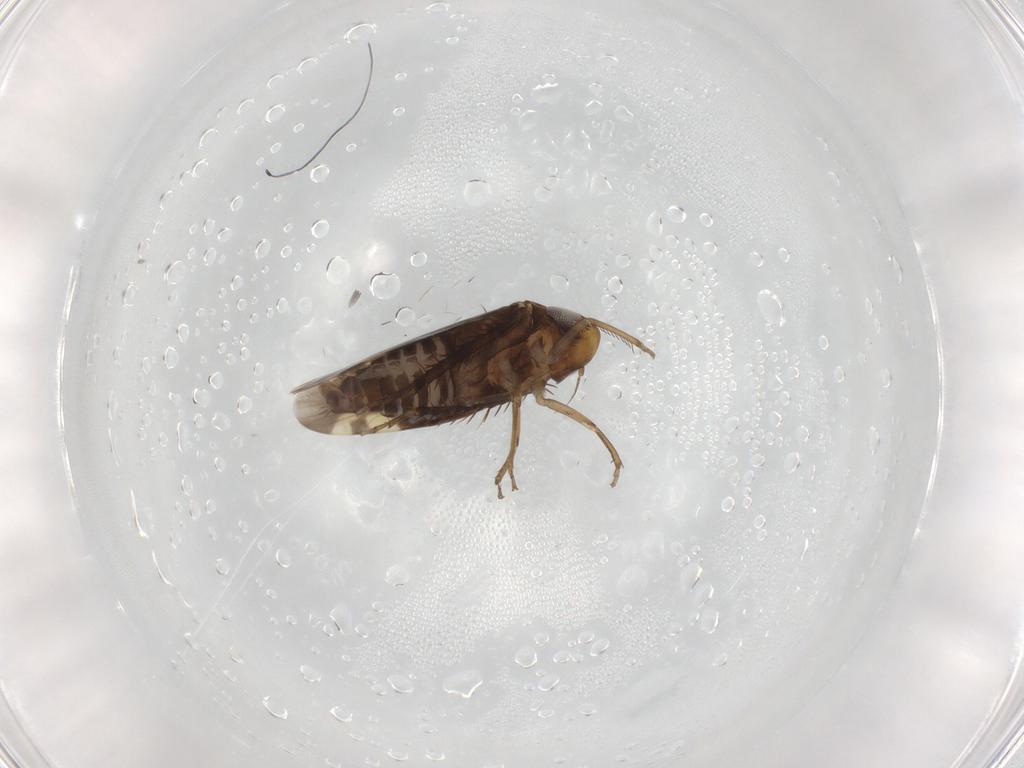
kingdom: Animalia
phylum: Arthropoda
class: Insecta
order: Hemiptera
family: Cicadellidae
